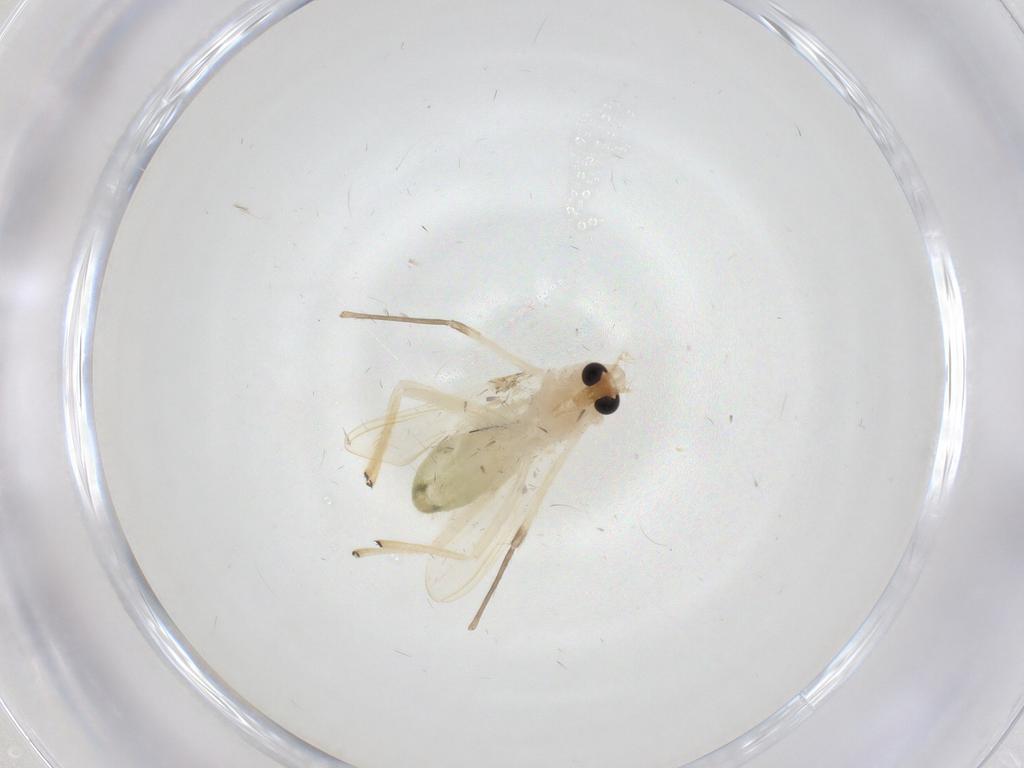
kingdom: Animalia
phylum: Arthropoda
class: Insecta
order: Diptera
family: Chironomidae
